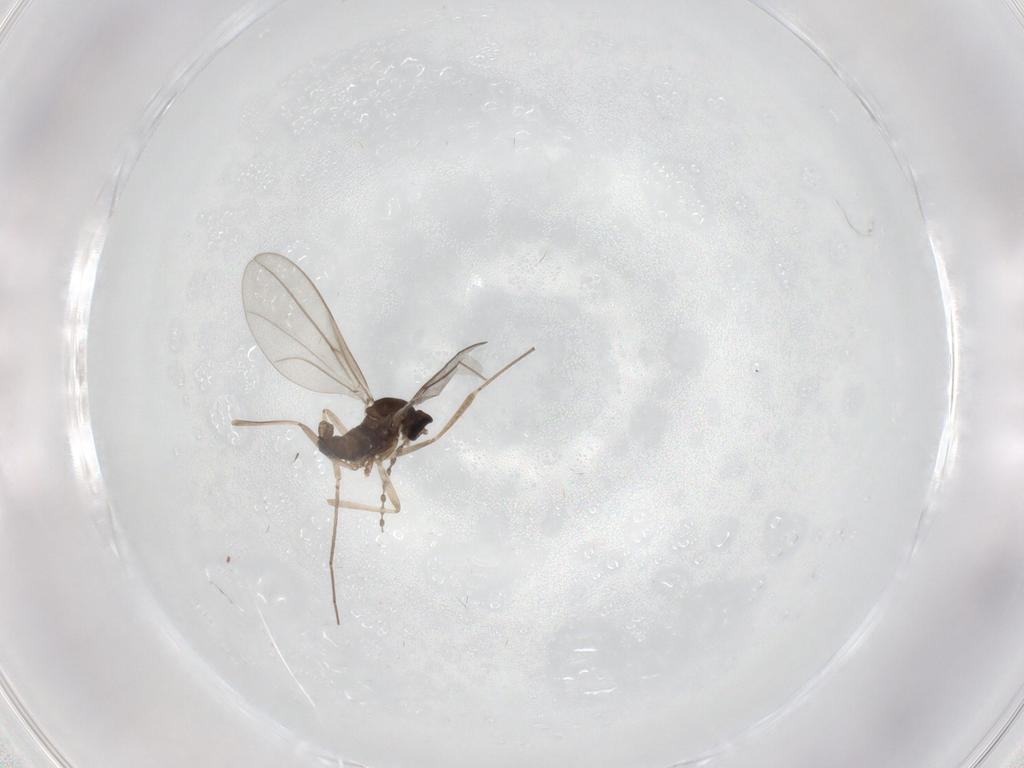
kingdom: Animalia
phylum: Arthropoda
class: Insecta
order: Diptera
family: Cecidomyiidae
